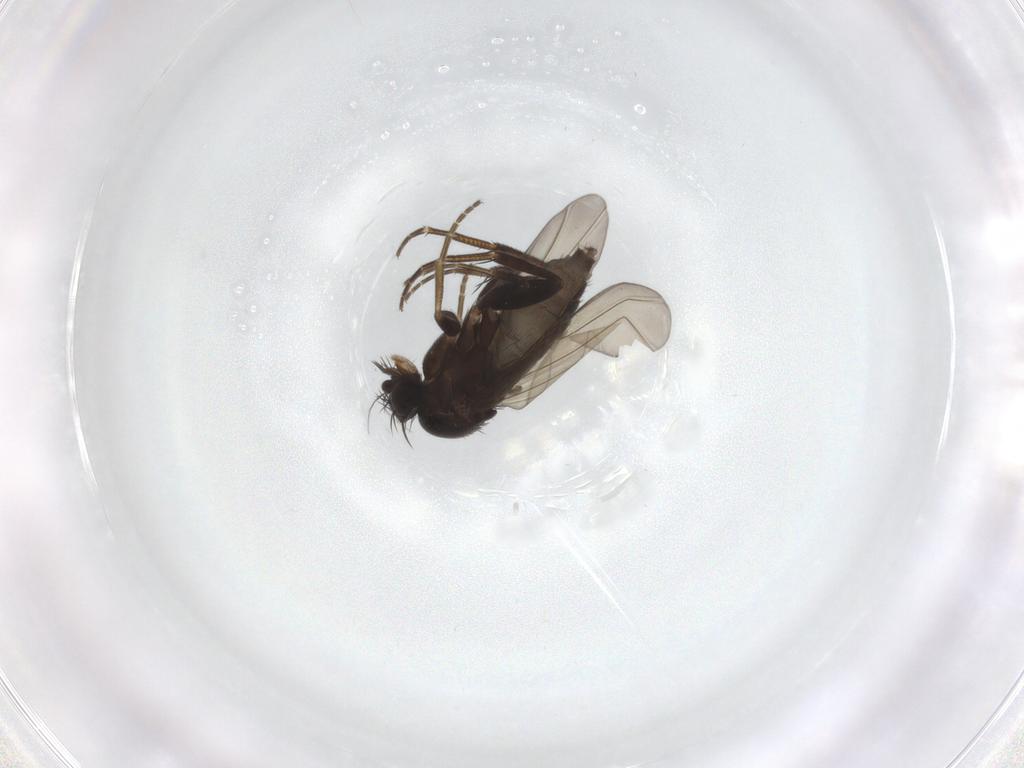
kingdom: Animalia
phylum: Arthropoda
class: Insecta
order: Diptera
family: Phoridae
